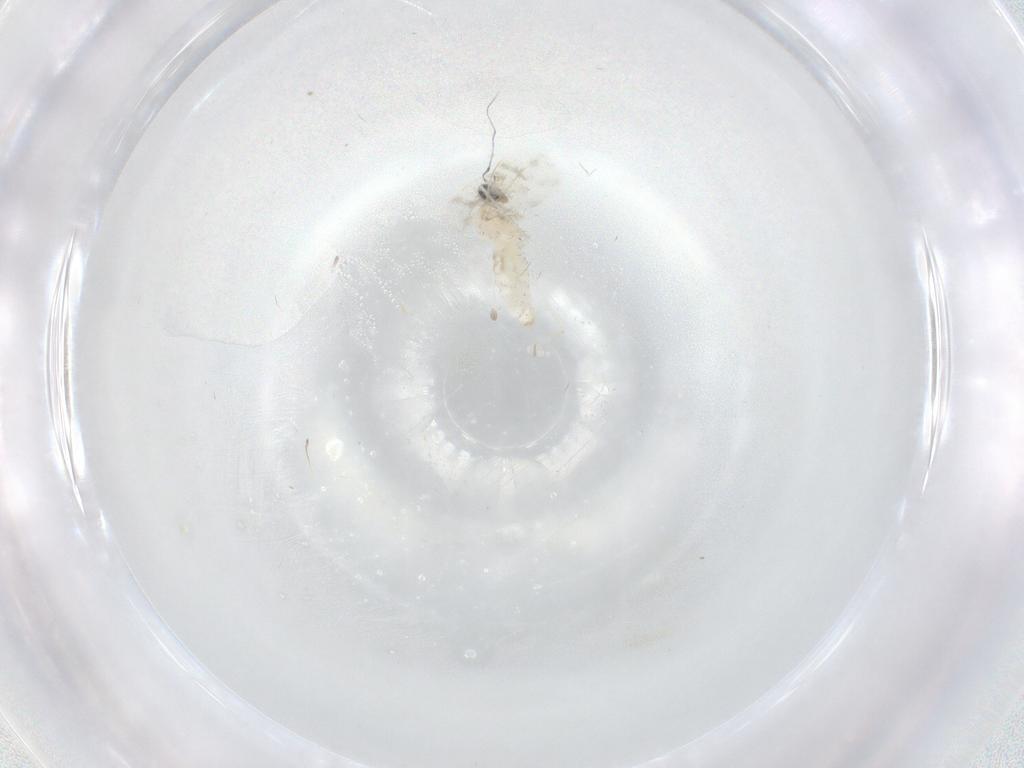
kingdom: Animalia
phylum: Arthropoda
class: Insecta
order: Diptera
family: Cecidomyiidae
